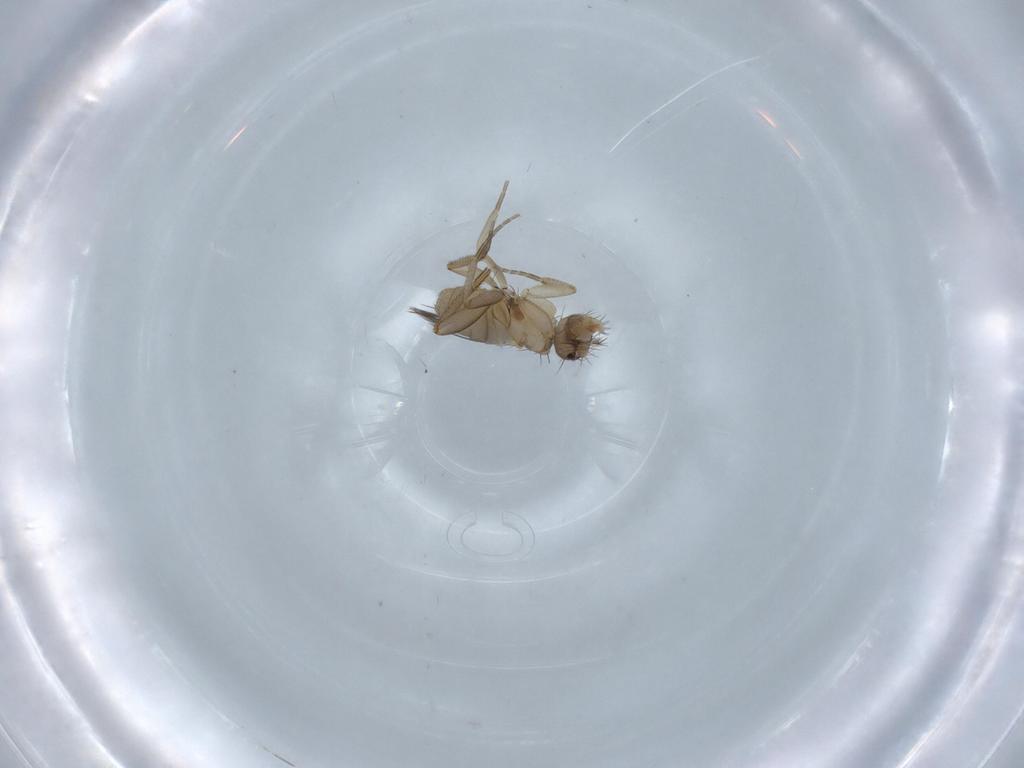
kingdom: Animalia
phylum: Arthropoda
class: Insecta
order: Diptera
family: Phoridae
